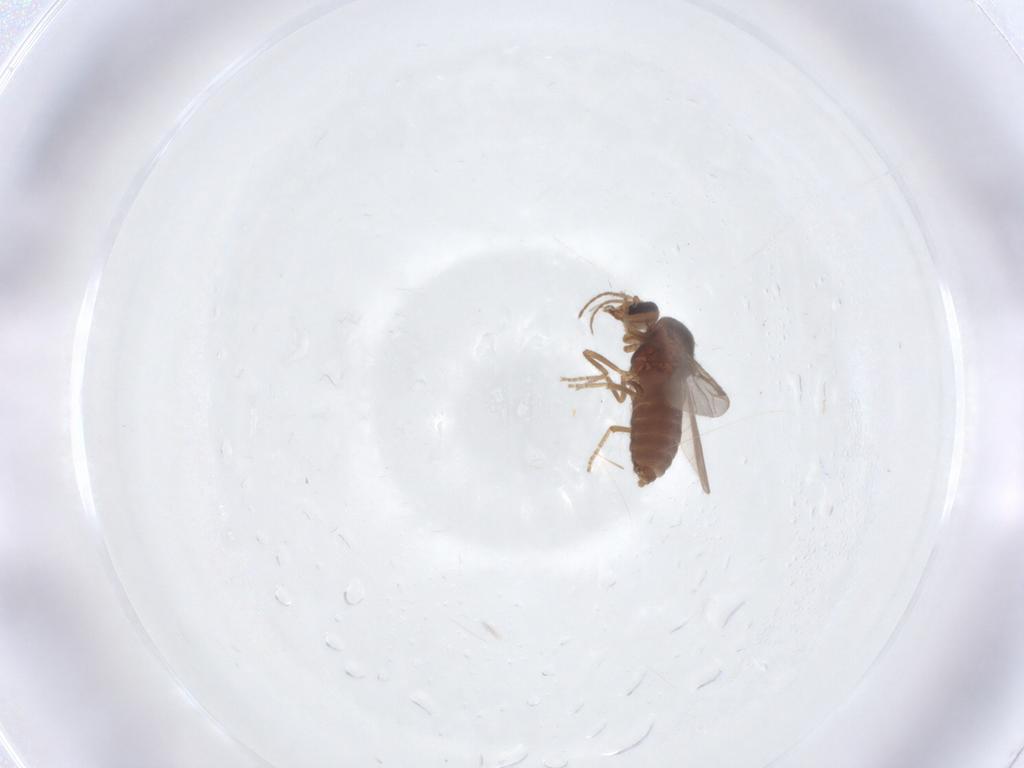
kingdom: Animalia
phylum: Arthropoda
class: Insecta
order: Diptera
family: Ceratopogonidae
